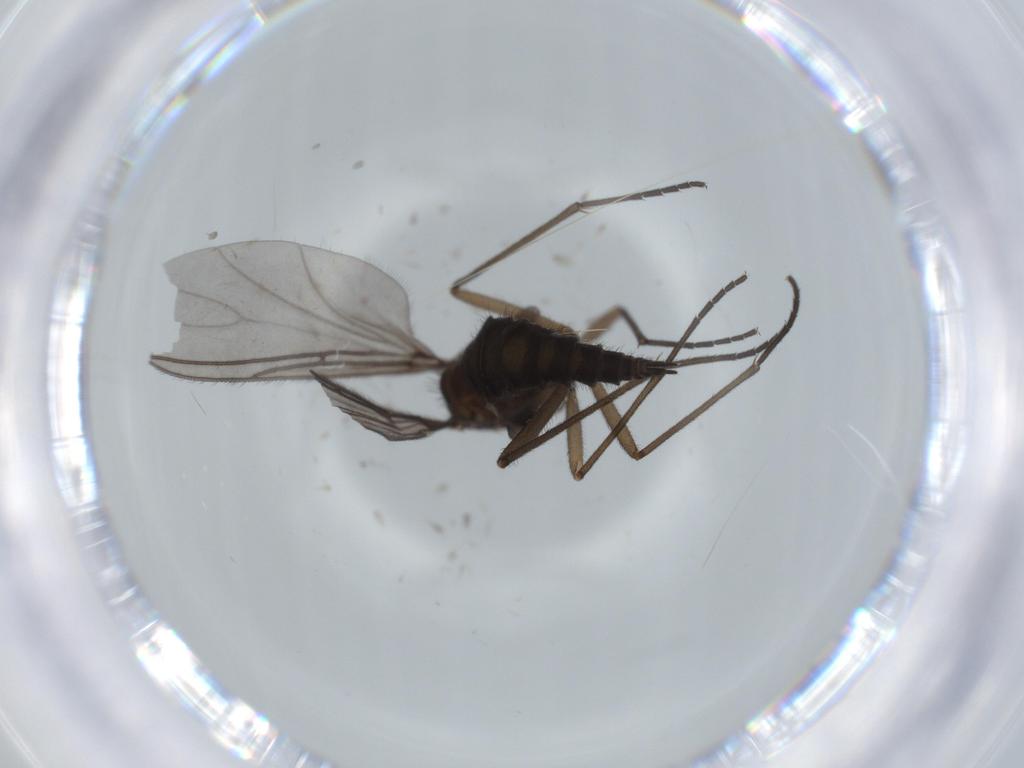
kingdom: Animalia
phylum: Arthropoda
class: Insecta
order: Diptera
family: Sciaridae
